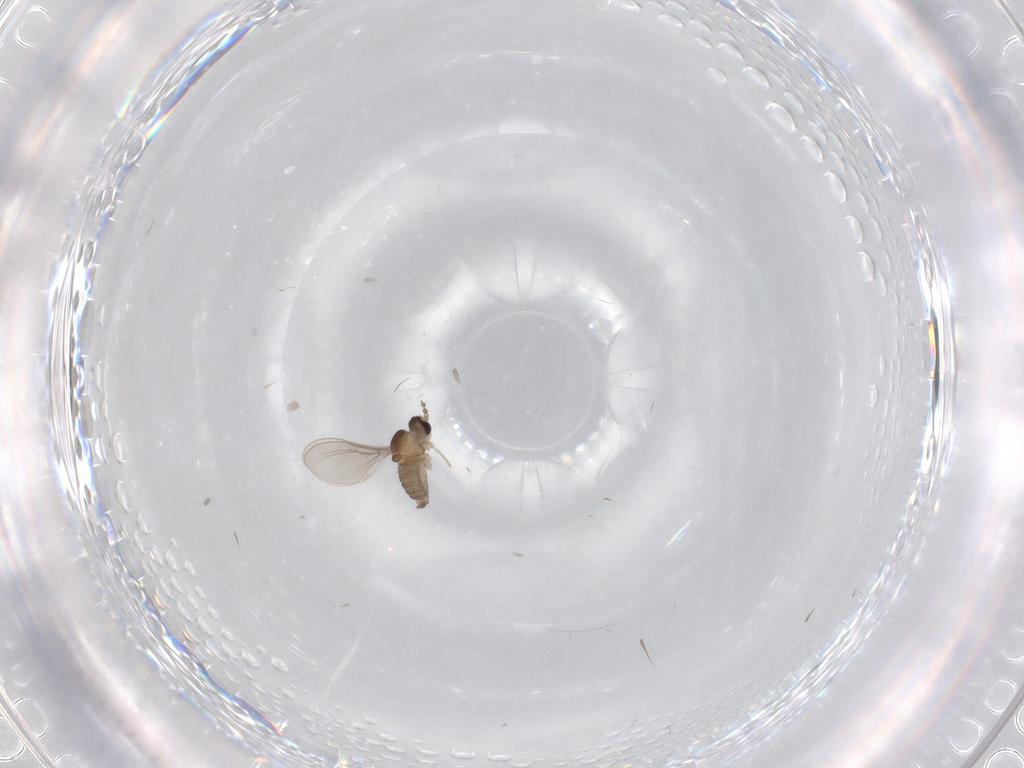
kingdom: Animalia
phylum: Arthropoda
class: Insecta
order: Diptera
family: Cecidomyiidae
